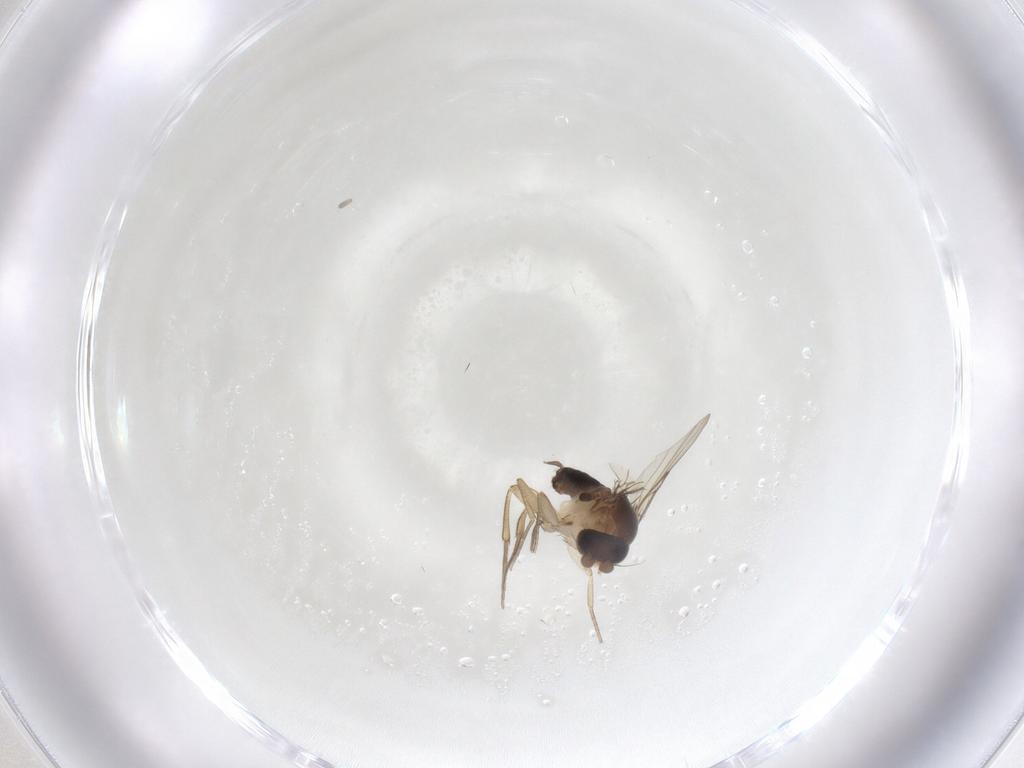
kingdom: Animalia
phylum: Arthropoda
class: Insecta
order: Diptera
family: Phoridae
